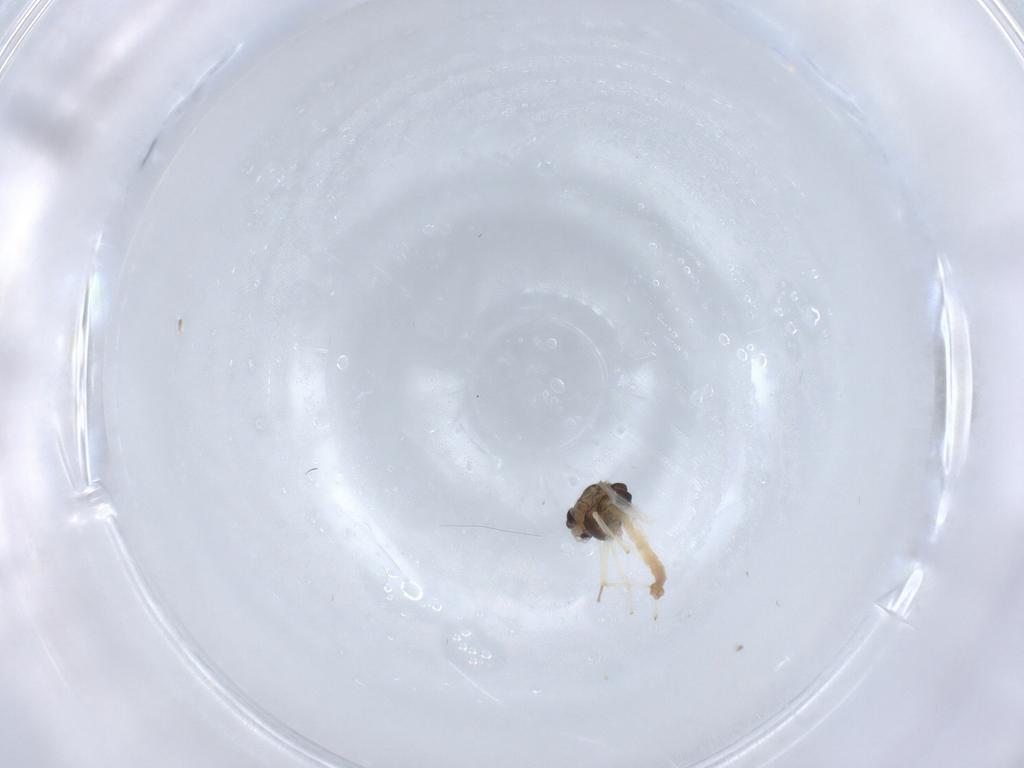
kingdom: Animalia
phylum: Arthropoda
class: Insecta
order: Diptera
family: Chironomidae
